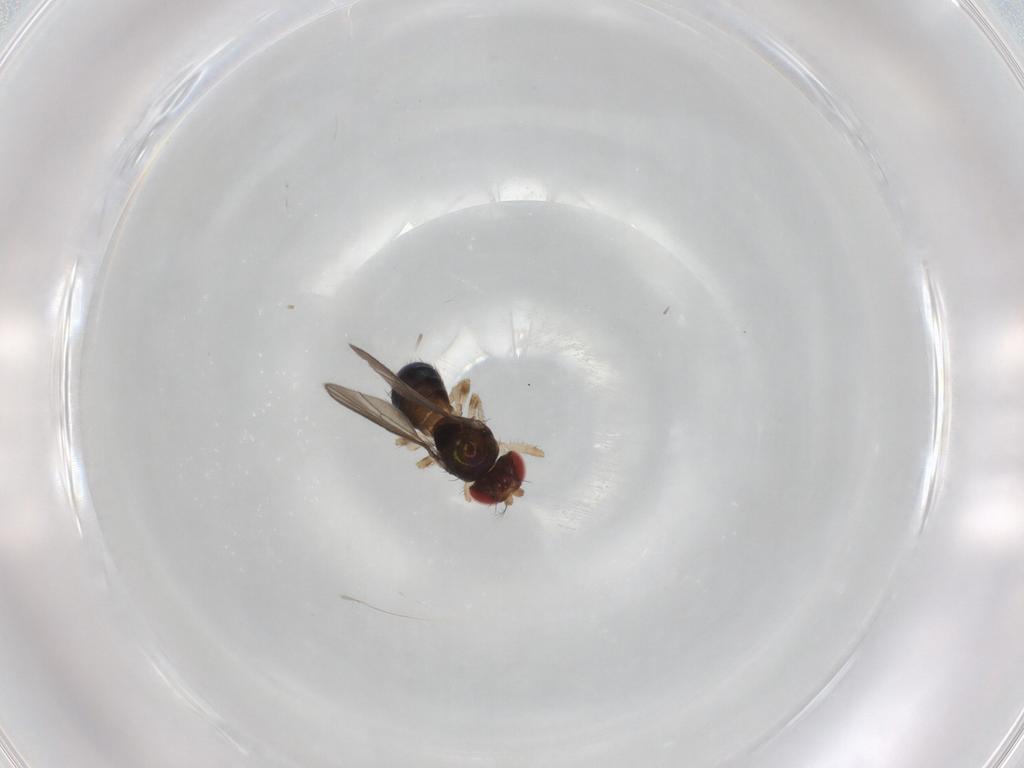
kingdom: Animalia
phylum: Arthropoda
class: Insecta
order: Diptera
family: Drosophilidae
